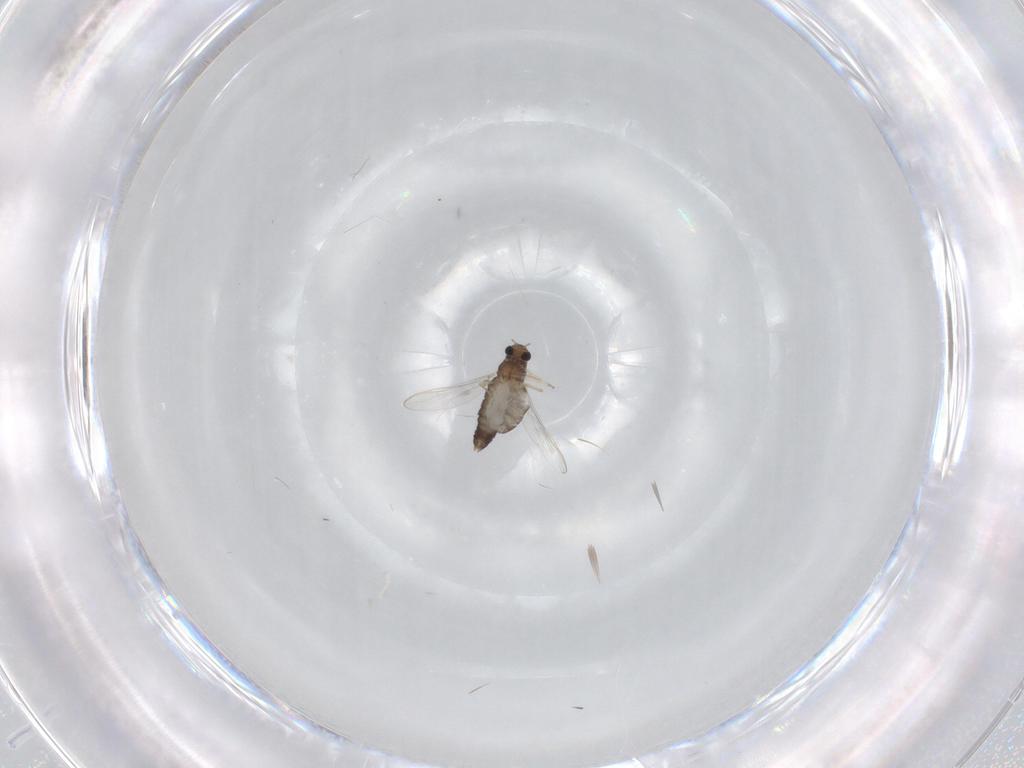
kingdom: Animalia
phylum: Arthropoda
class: Insecta
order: Diptera
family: Chironomidae
